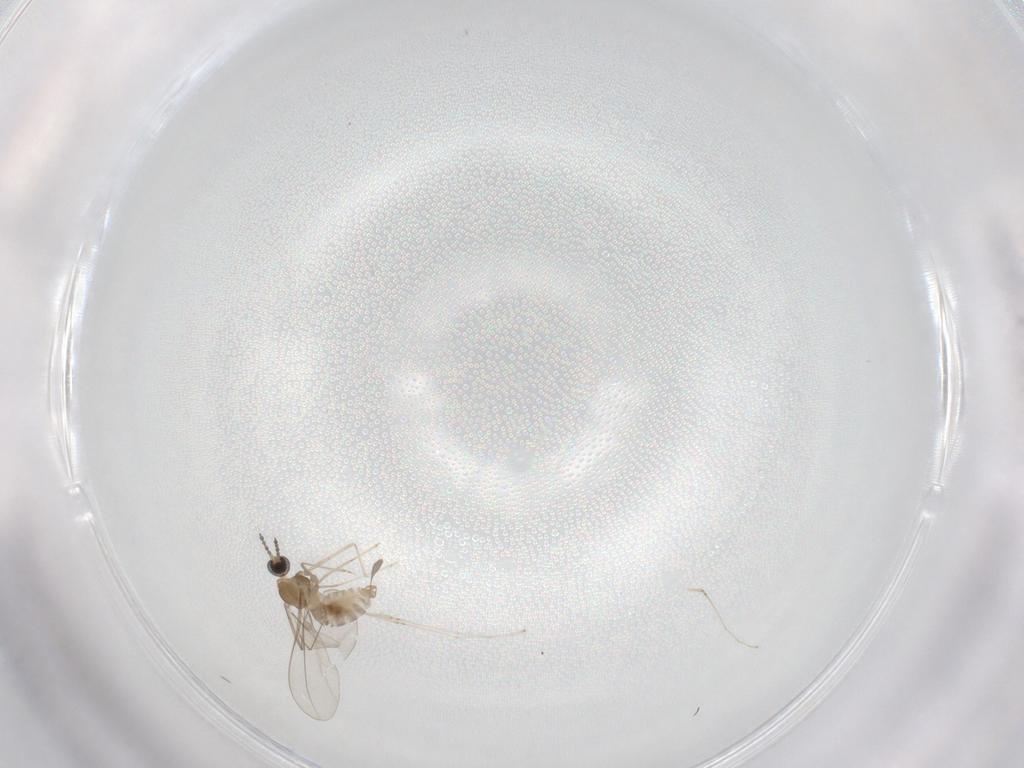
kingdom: Animalia
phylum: Arthropoda
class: Insecta
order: Diptera
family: Cecidomyiidae
